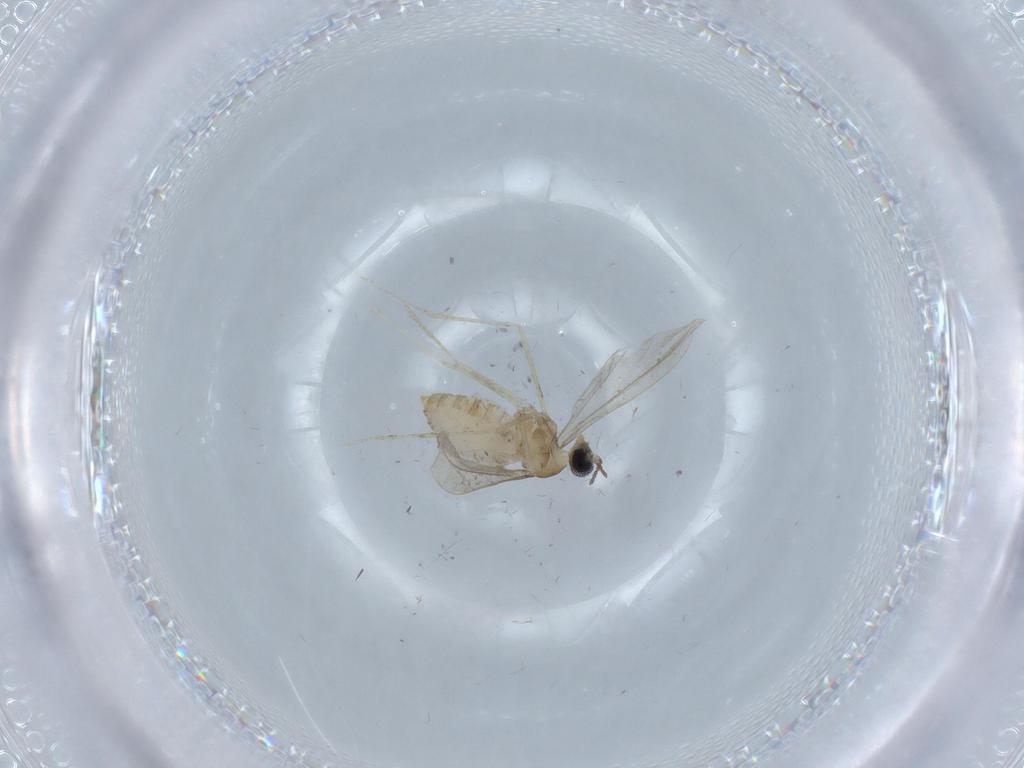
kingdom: Animalia
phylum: Arthropoda
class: Insecta
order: Diptera
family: Cecidomyiidae
